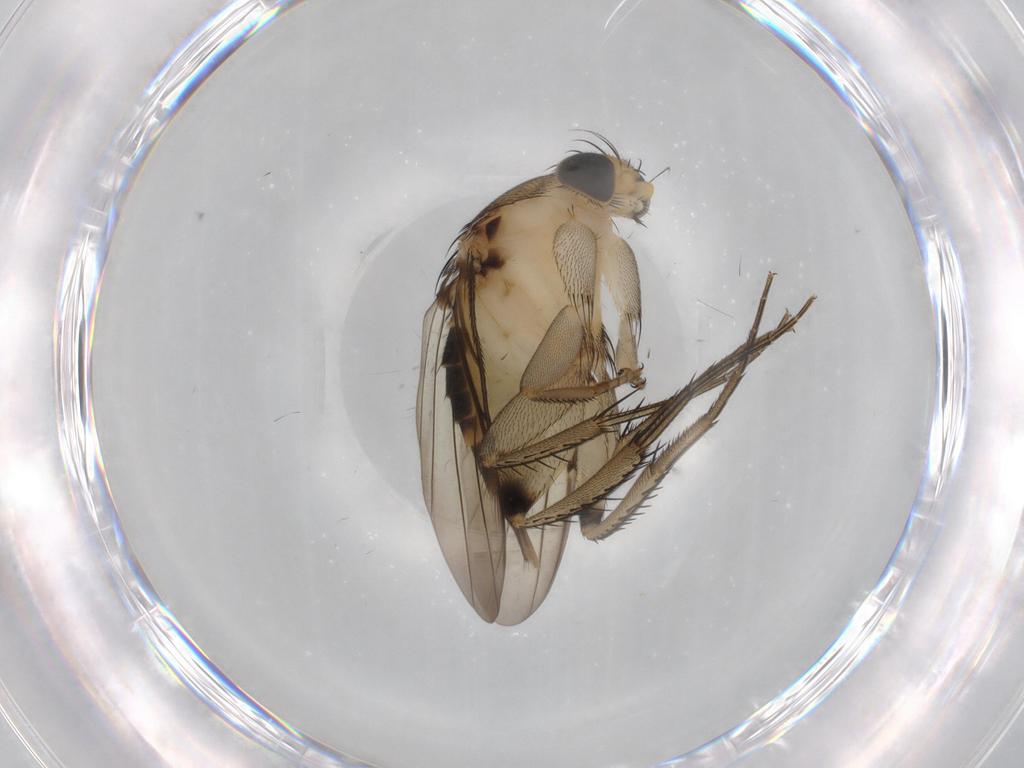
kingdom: Animalia
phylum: Arthropoda
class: Insecta
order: Diptera
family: Phoridae
